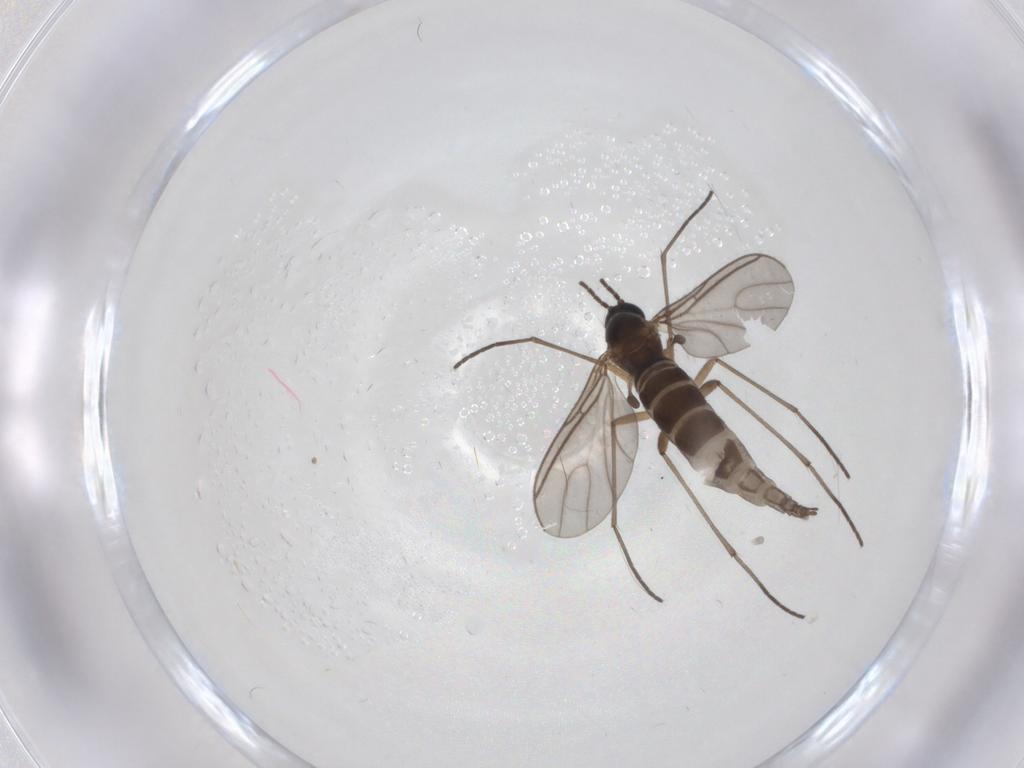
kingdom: Animalia
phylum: Arthropoda
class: Insecta
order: Diptera
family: Sciaridae
